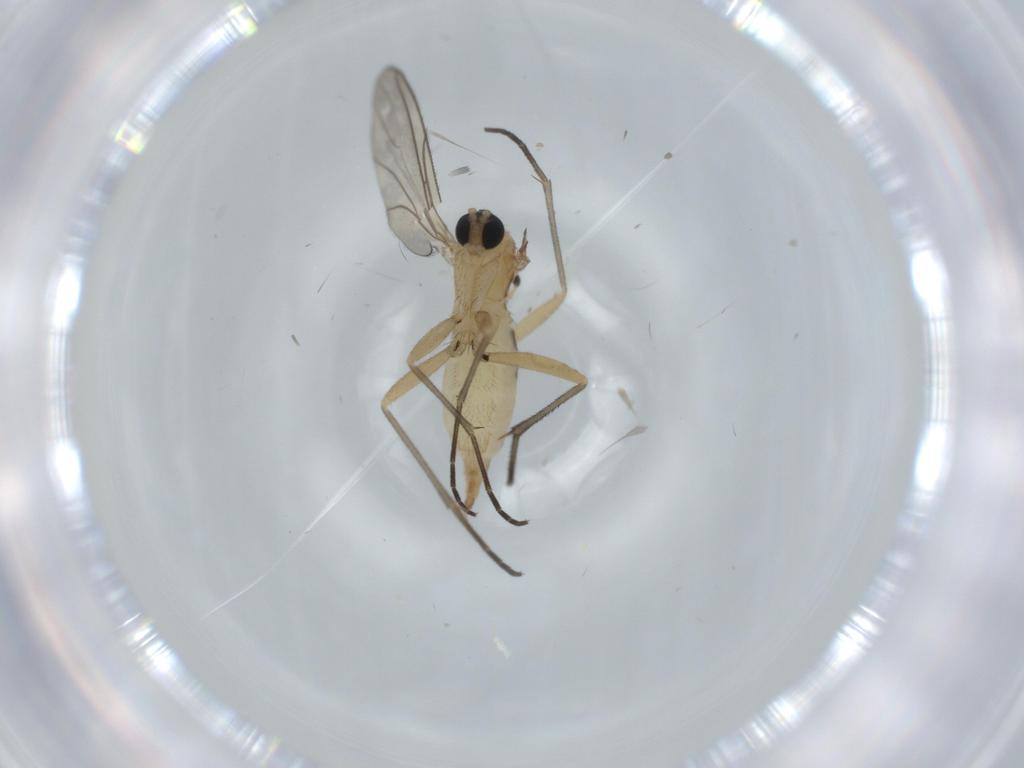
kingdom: Animalia
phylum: Arthropoda
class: Insecta
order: Diptera
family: Sciaridae
